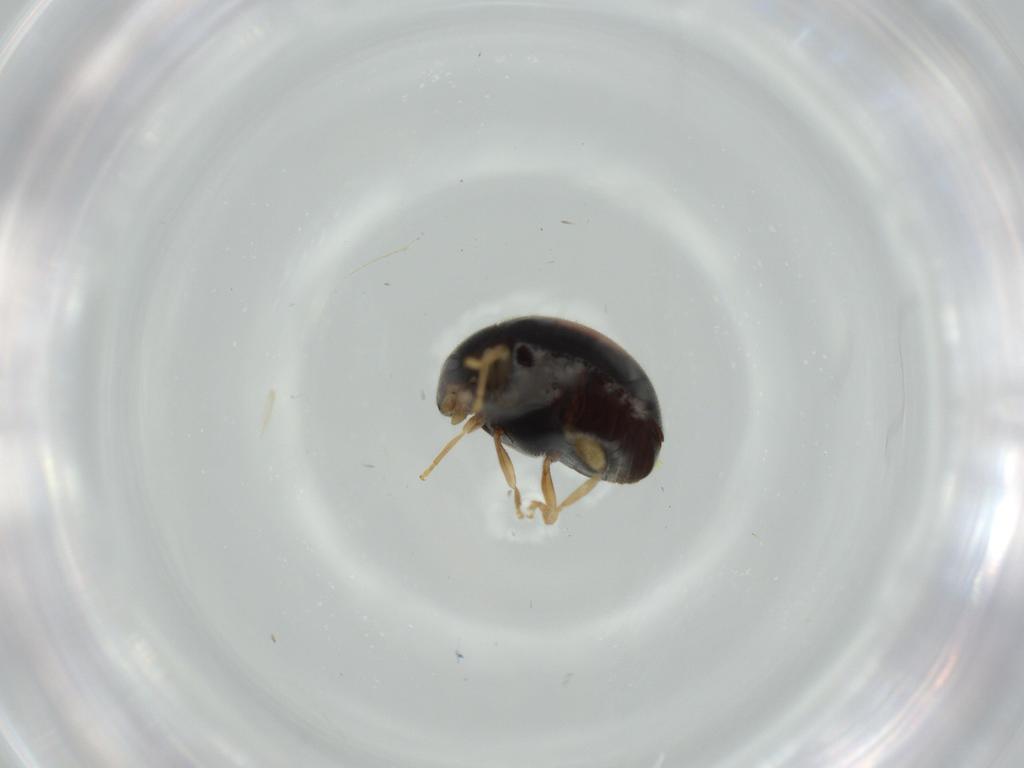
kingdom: Animalia
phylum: Arthropoda
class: Insecta
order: Coleoptera
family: Coccinellidae
